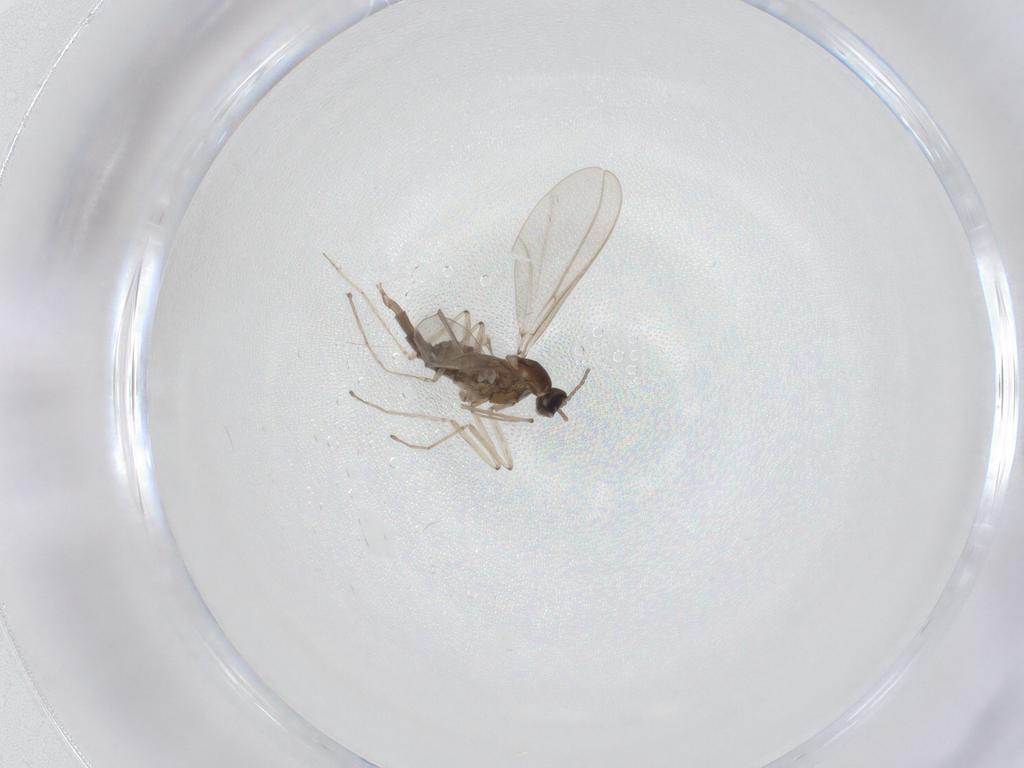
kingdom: Animalia
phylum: Arthropoda
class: Insecta
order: Diptera
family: Cecidomyiidae
